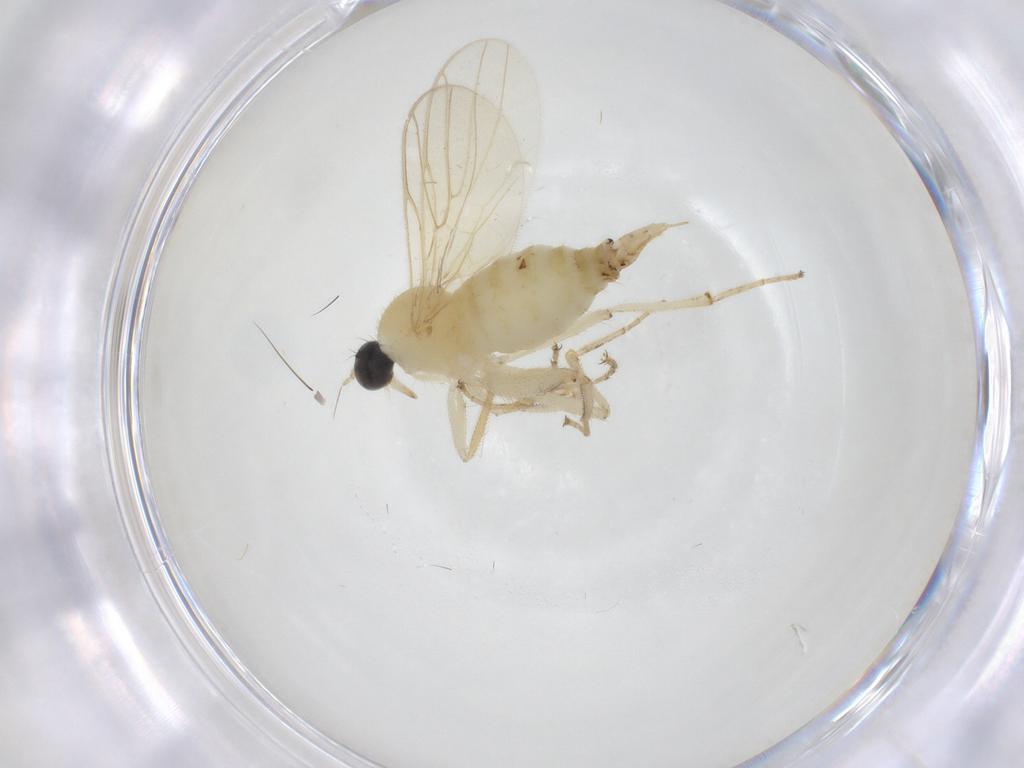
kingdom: Animalia
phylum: Arthropoda
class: Insecta
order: Diptera
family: Hybotidae
